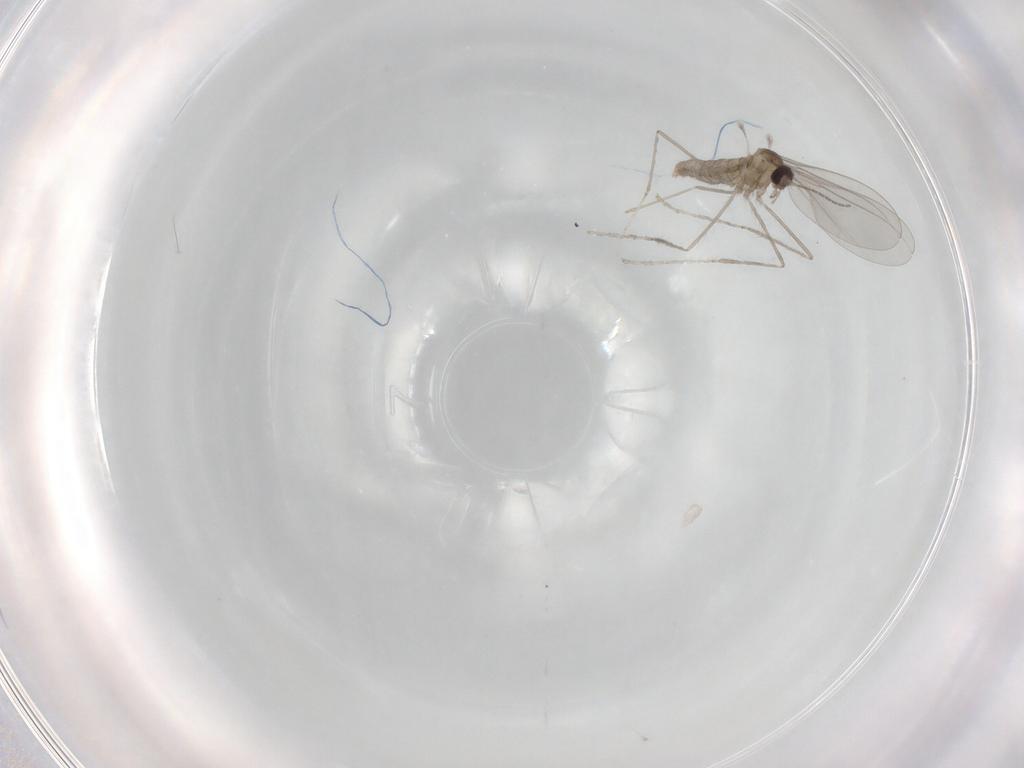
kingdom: Animalia
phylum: Arthropoda
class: Insecta
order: Diptera
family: Cecidomyiidae
